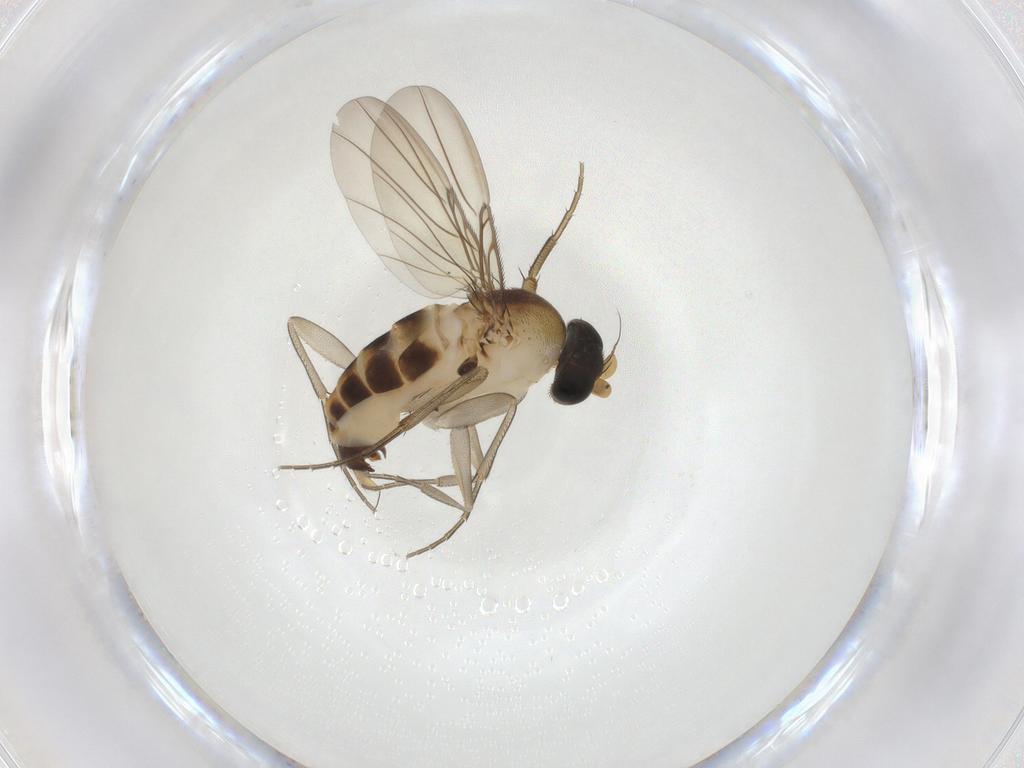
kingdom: Animalia
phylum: Arthropoda
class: Insecta
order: Diptera
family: Phoridae
